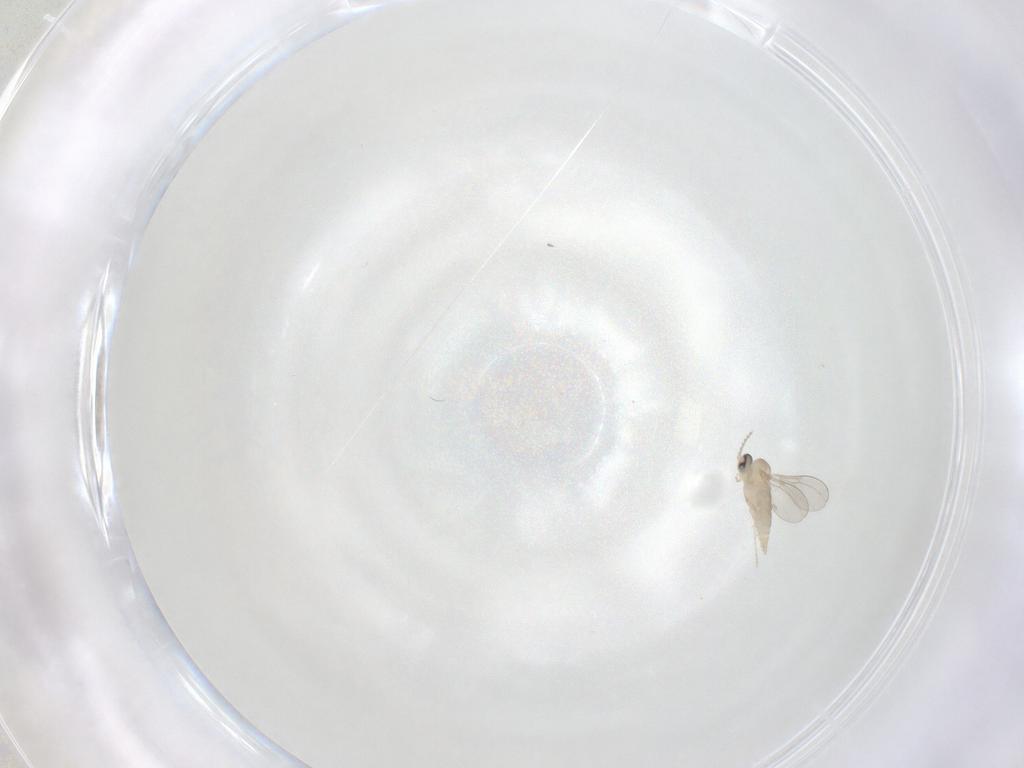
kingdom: Animalia
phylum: Arthropoda
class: Insecta
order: Diptera
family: Cecidomyiidae
